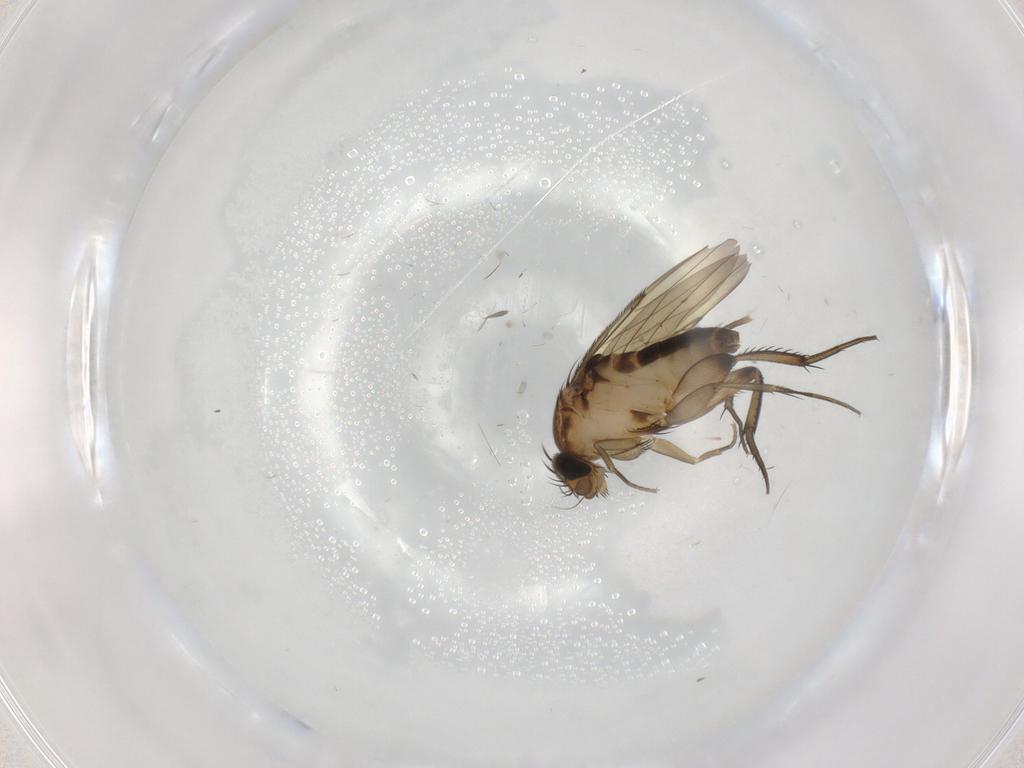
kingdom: Animalia
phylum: Arthropoda
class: Insecta
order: Diptera
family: Phoridae
